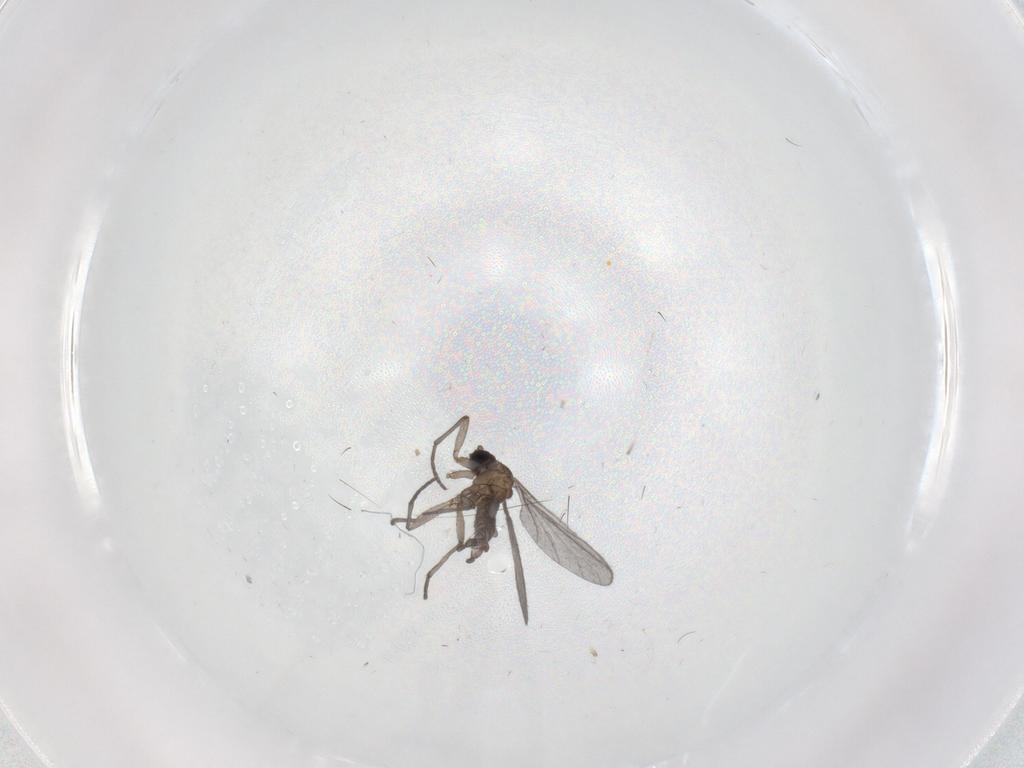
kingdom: Animalia
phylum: Arthropoda
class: Insecta
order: Diptera
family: Sciaridae
